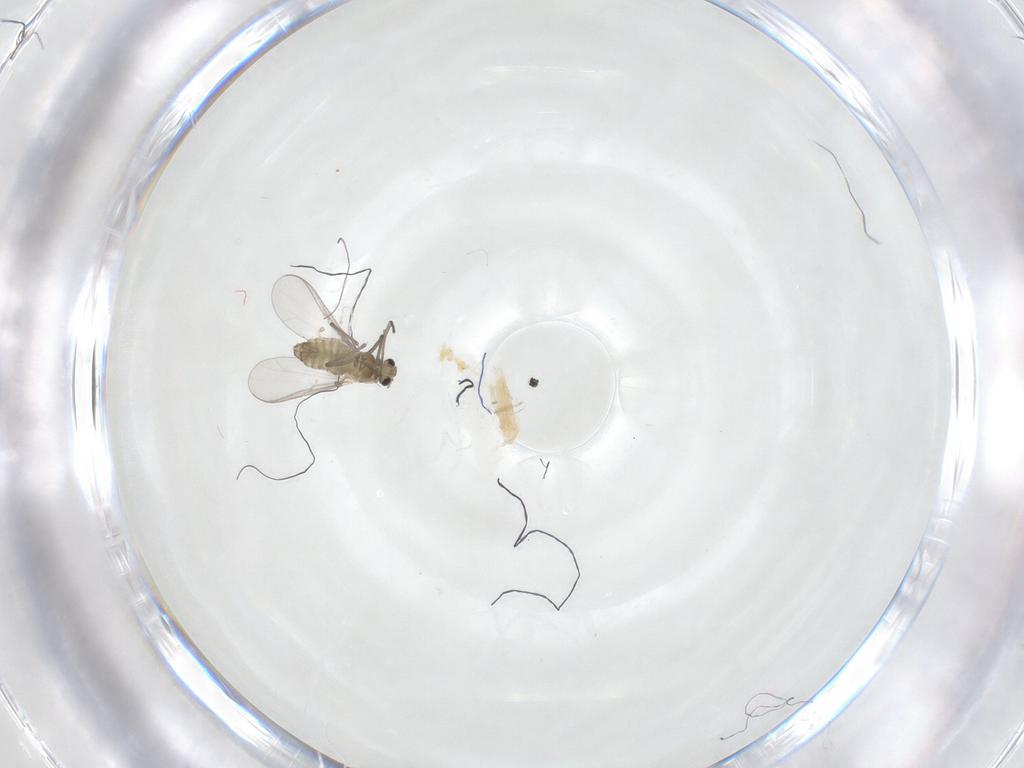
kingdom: Animalia
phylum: Arthropoda
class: Insecta
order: Diptera
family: Chironomidae
